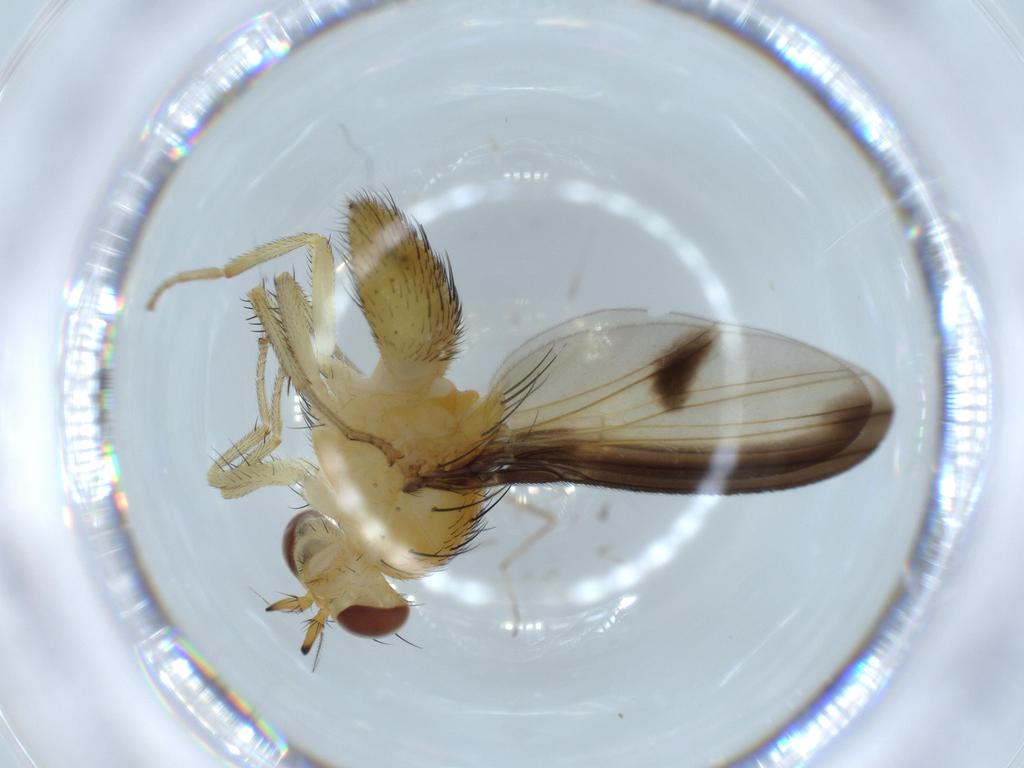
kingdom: Animalia
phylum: Arthropoda
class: Insecta
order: Diptera
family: Lauxaniidae
